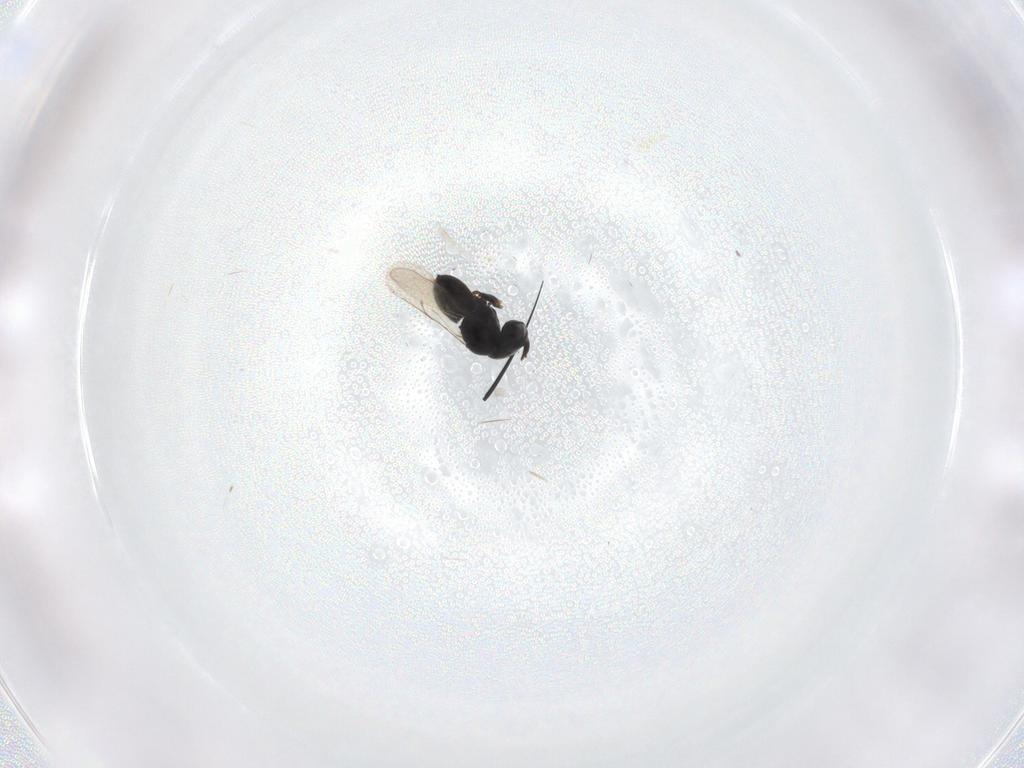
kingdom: Animalia
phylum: Arthropoda
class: Insecta
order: Hymenoptera
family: Scelionidae
